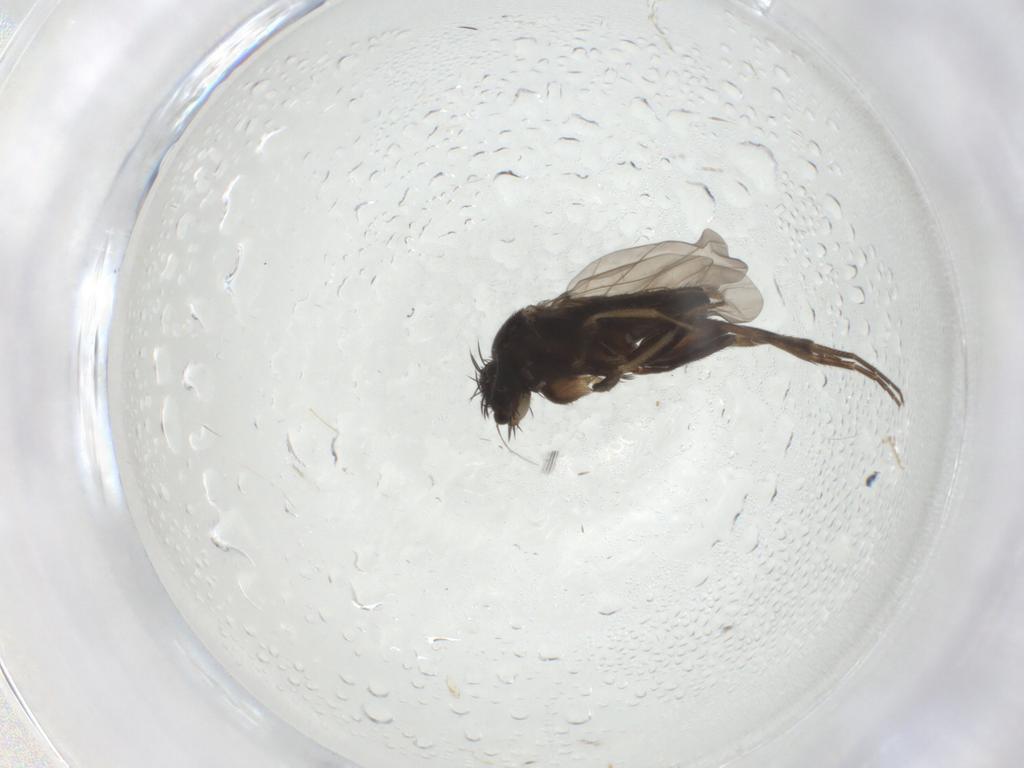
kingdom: Animalia
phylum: Arthropoda
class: Insecta
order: Diptera
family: Phoridae
